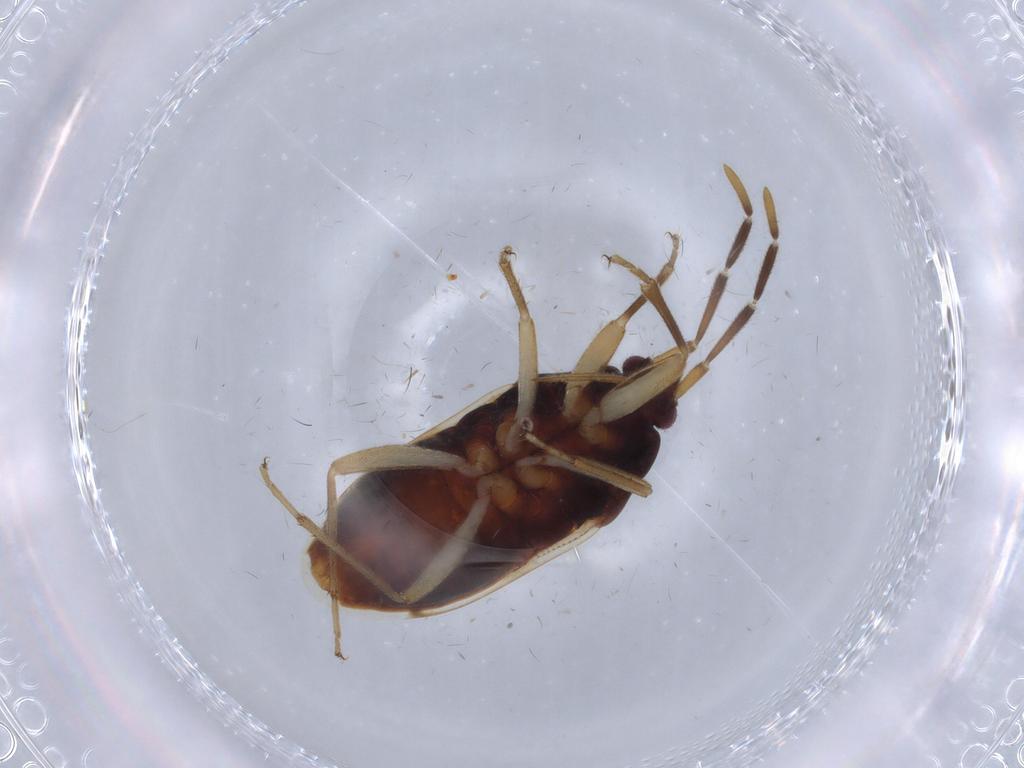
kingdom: Animalia
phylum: Arthropoda
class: Insecta
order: Hemiptera
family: Rhyparochromidae
